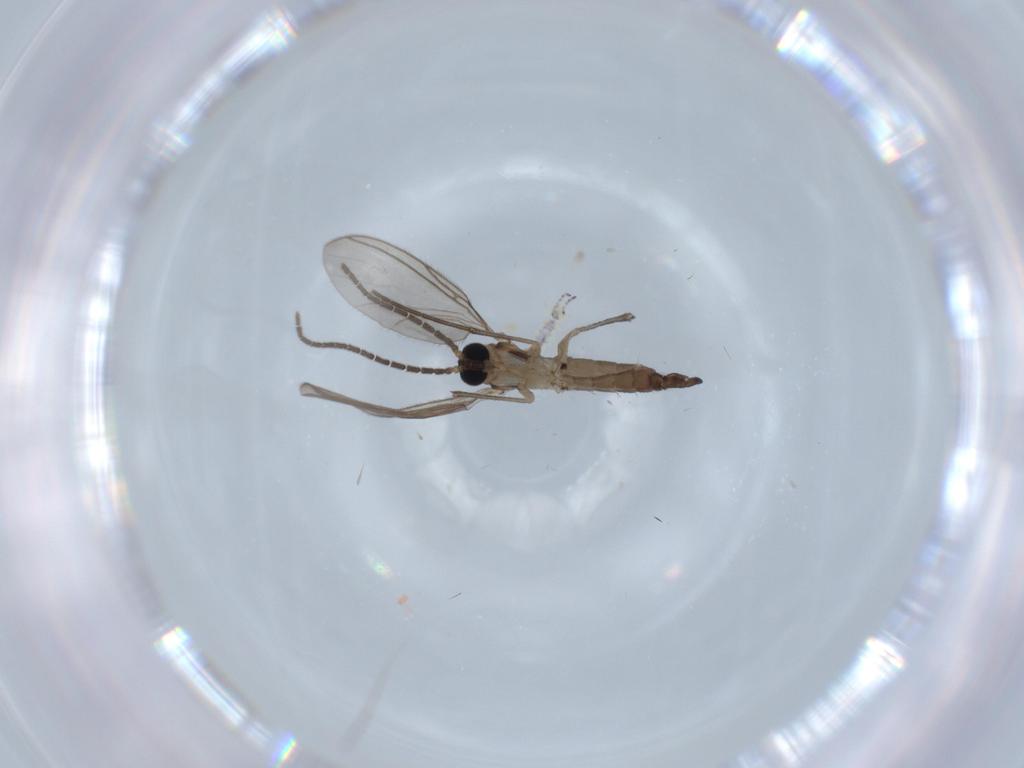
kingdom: Animalia
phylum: Arthropoda
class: Insecta
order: Diptera
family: Sciaridae
